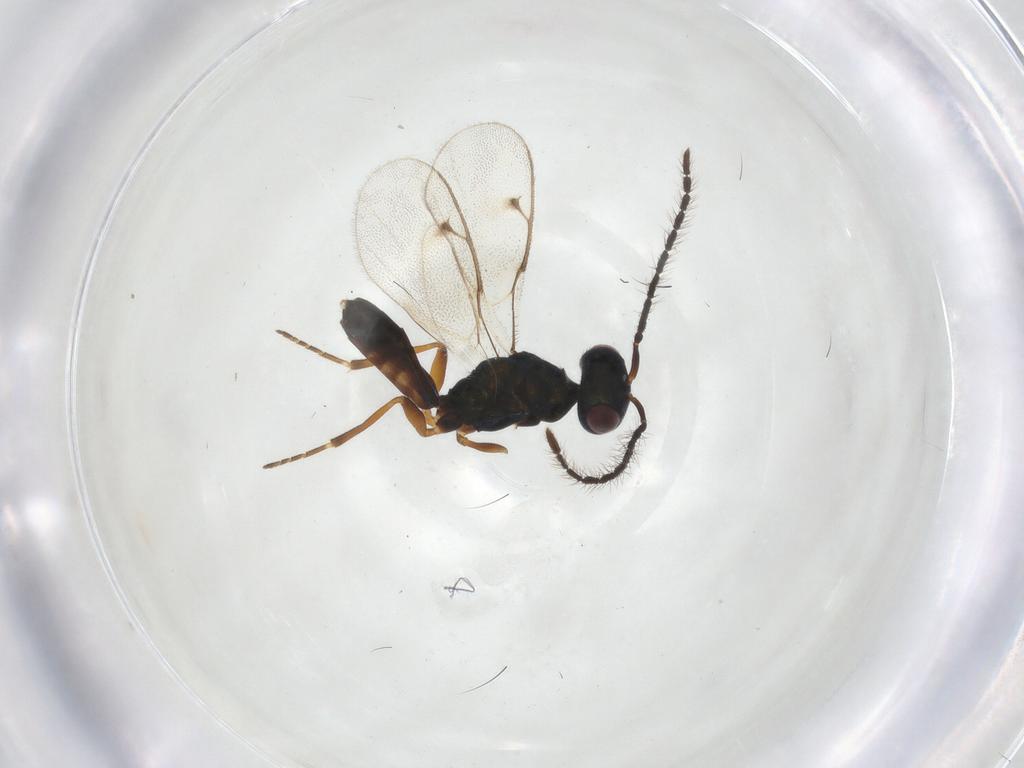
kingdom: Animalia
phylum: Arthropoda
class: Insecta
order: Hymenoptera
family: Pteromalidae
